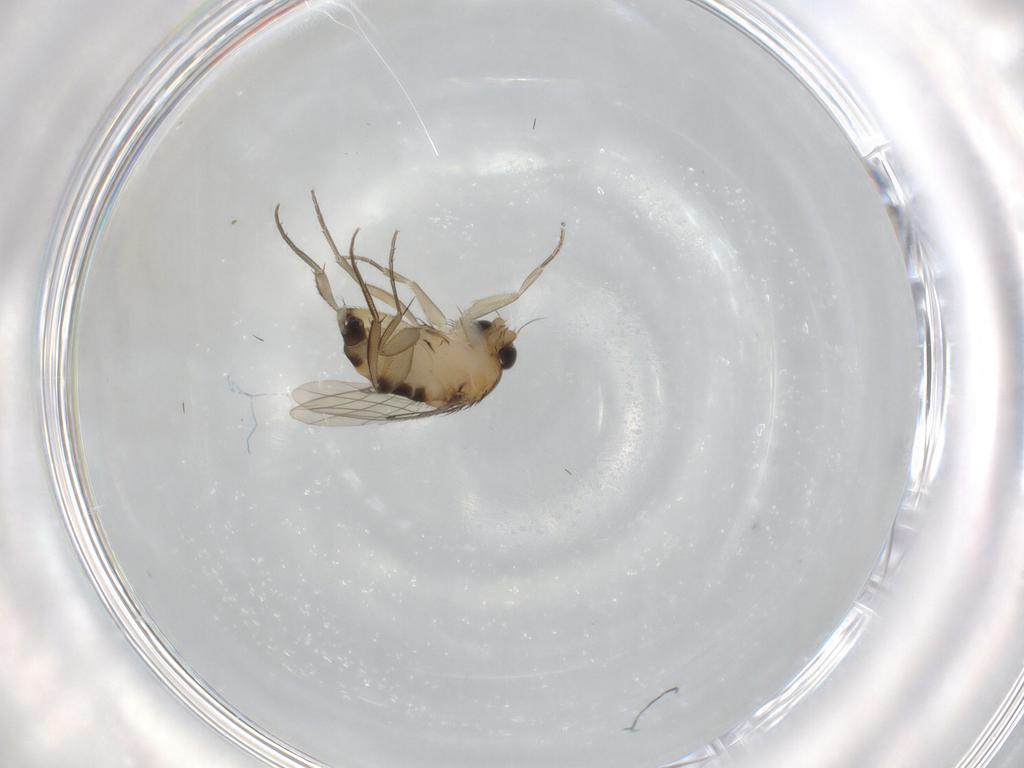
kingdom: Animalia
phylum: Arthropoda
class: Insecta
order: Diptera
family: Phoridae
